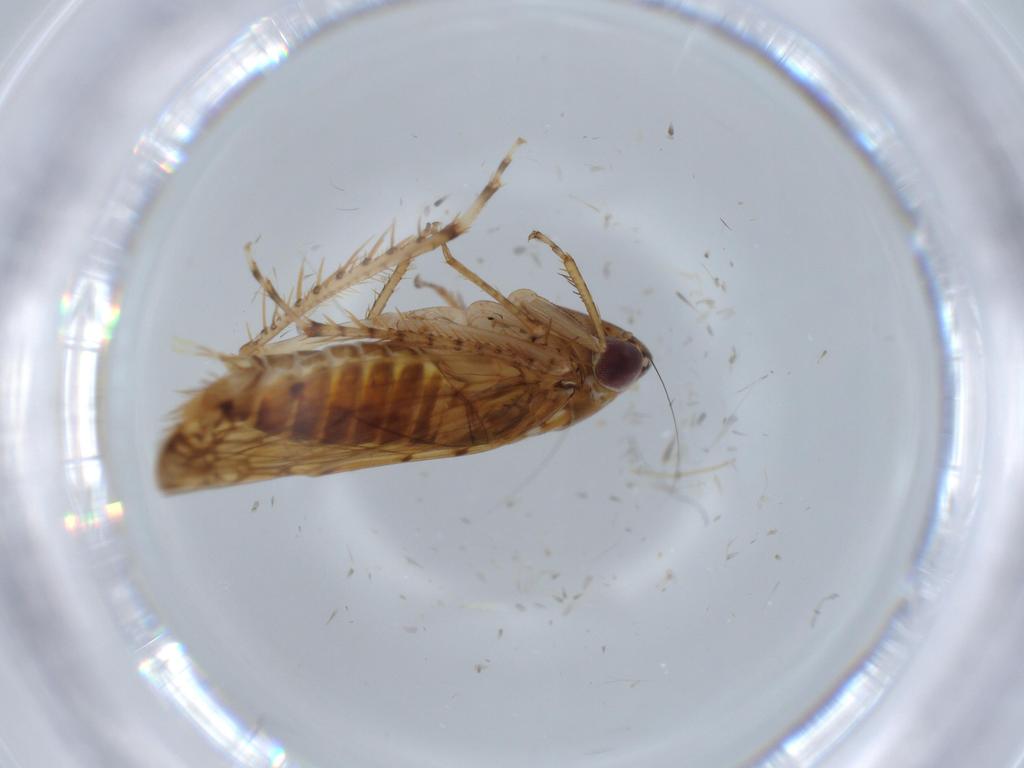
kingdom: Animalia
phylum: Arthropoda
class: Insecta
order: Hemiptera
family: Cicadellidae
